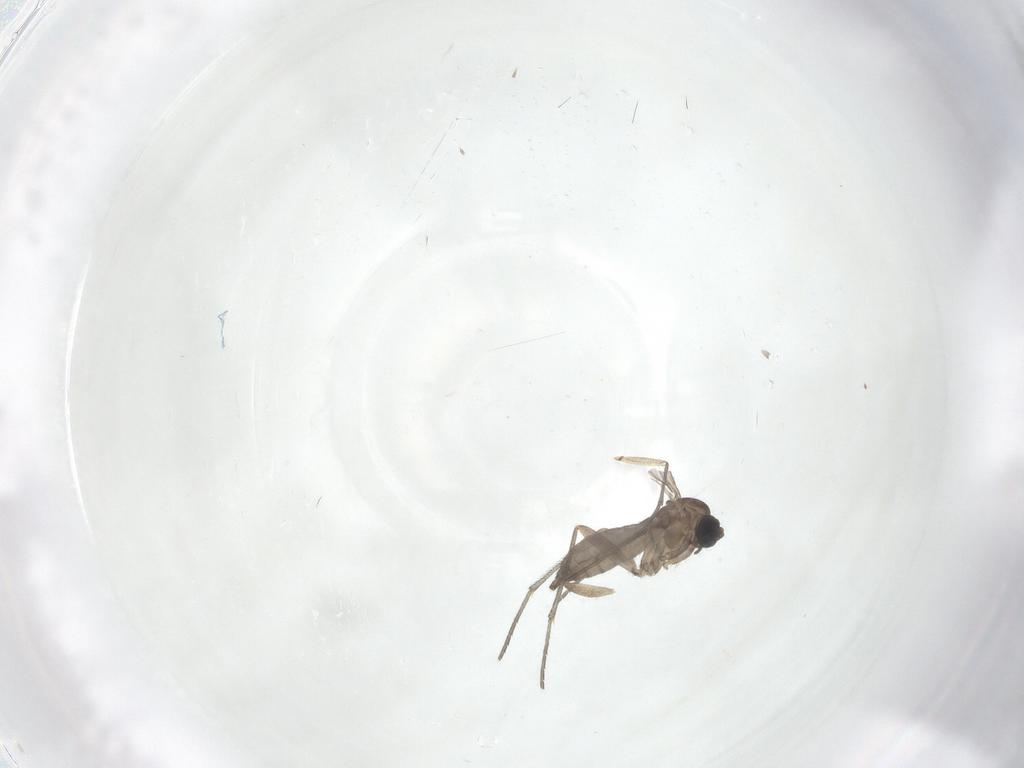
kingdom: Animalia
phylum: Arthropoda
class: Insecta
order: Diptera
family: Sciaridae
